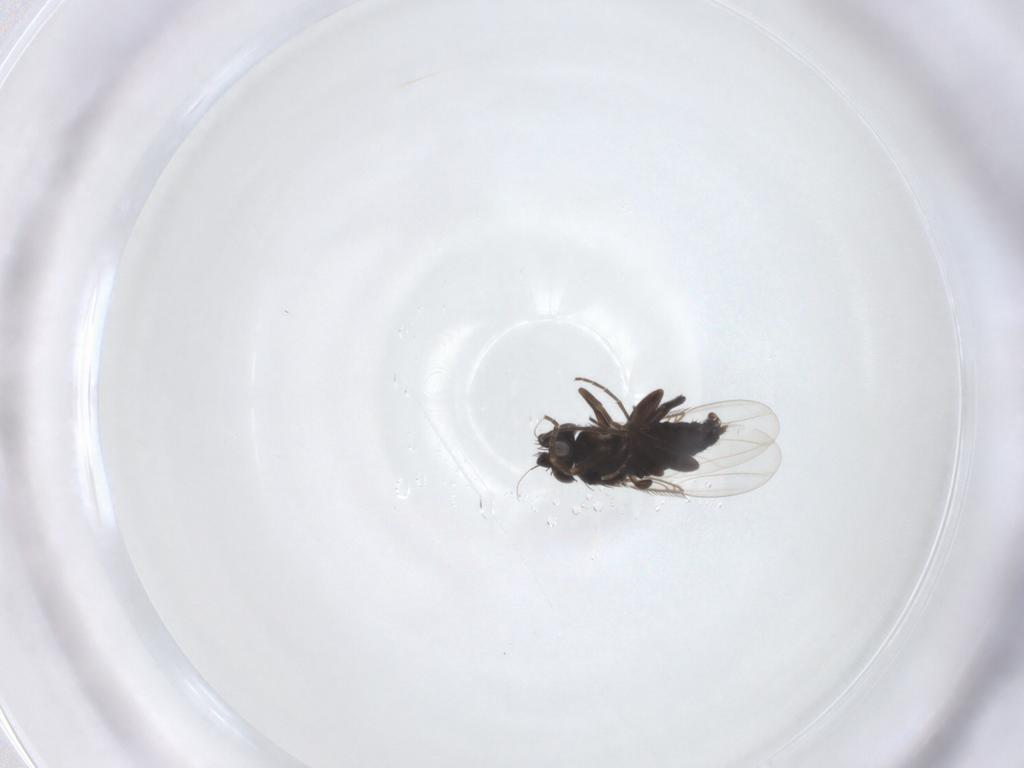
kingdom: Animalia
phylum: Arthropoda
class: Insecta
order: Diptera
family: Phoridae
